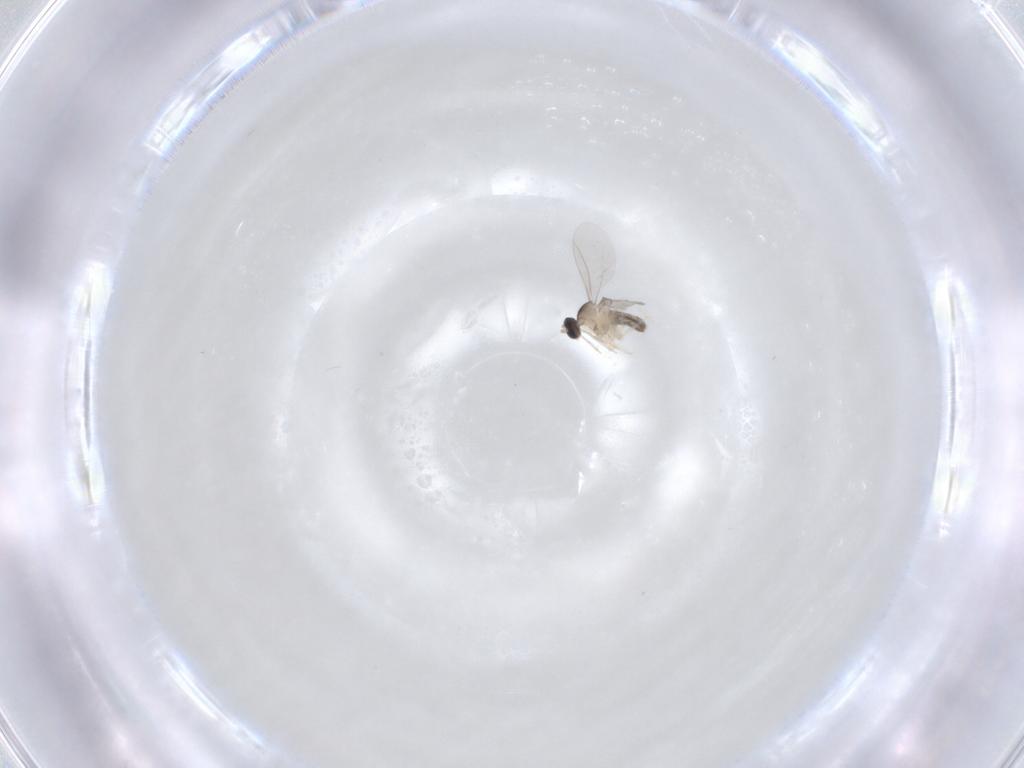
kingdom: Animalia
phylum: Arthropoda
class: Insecta
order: Diptera
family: Cecidomyiidae
